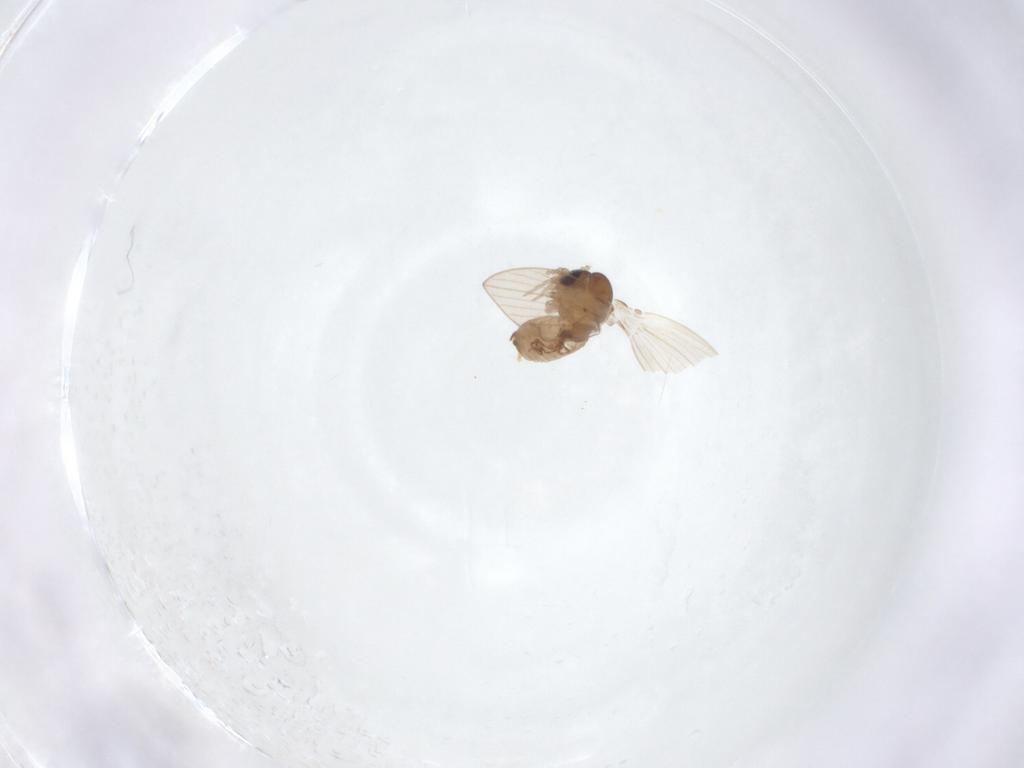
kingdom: Animalia
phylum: Arthropoda
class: Insecta
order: Diptera
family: Psychodidae
